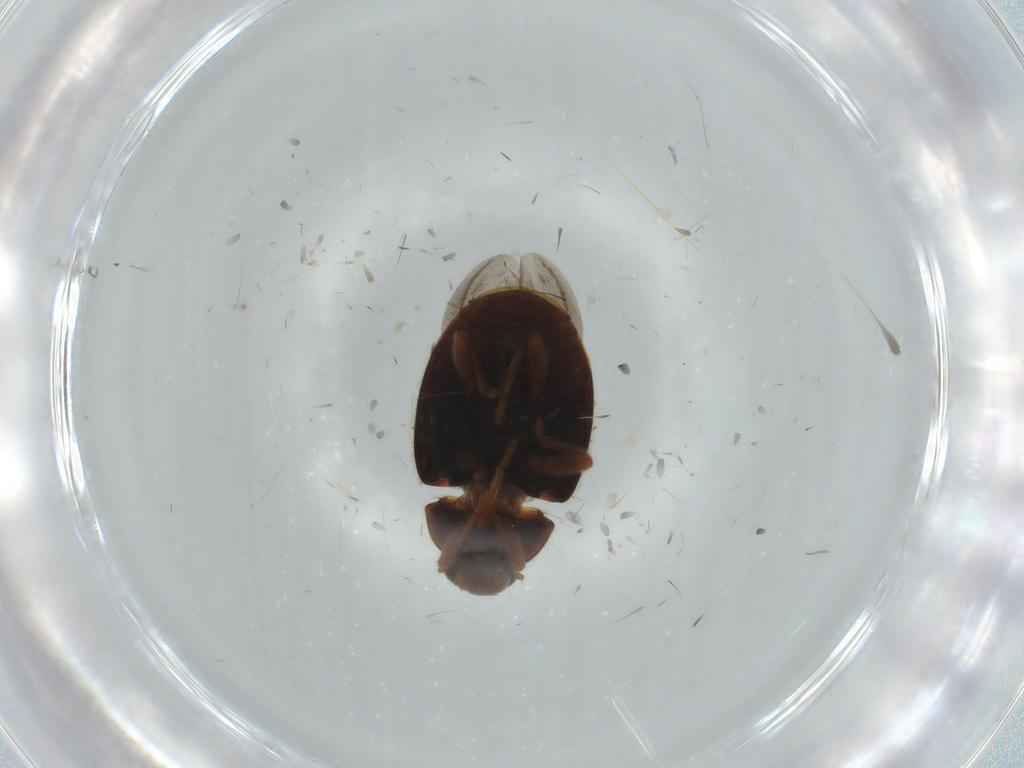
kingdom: Animalia
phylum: Arthropoda
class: Insecta
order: Coleoptera
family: Coccinellidae
